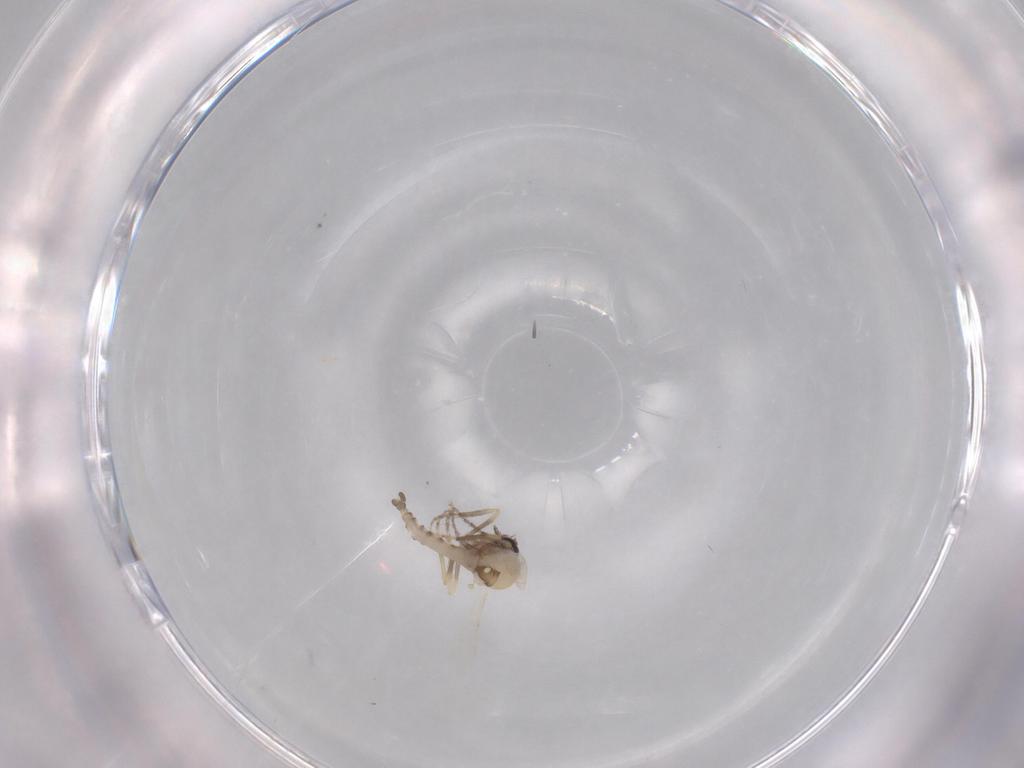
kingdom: Animalia
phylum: Arthropoda
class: Insecta
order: Diptera
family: Ceratopogonidae
